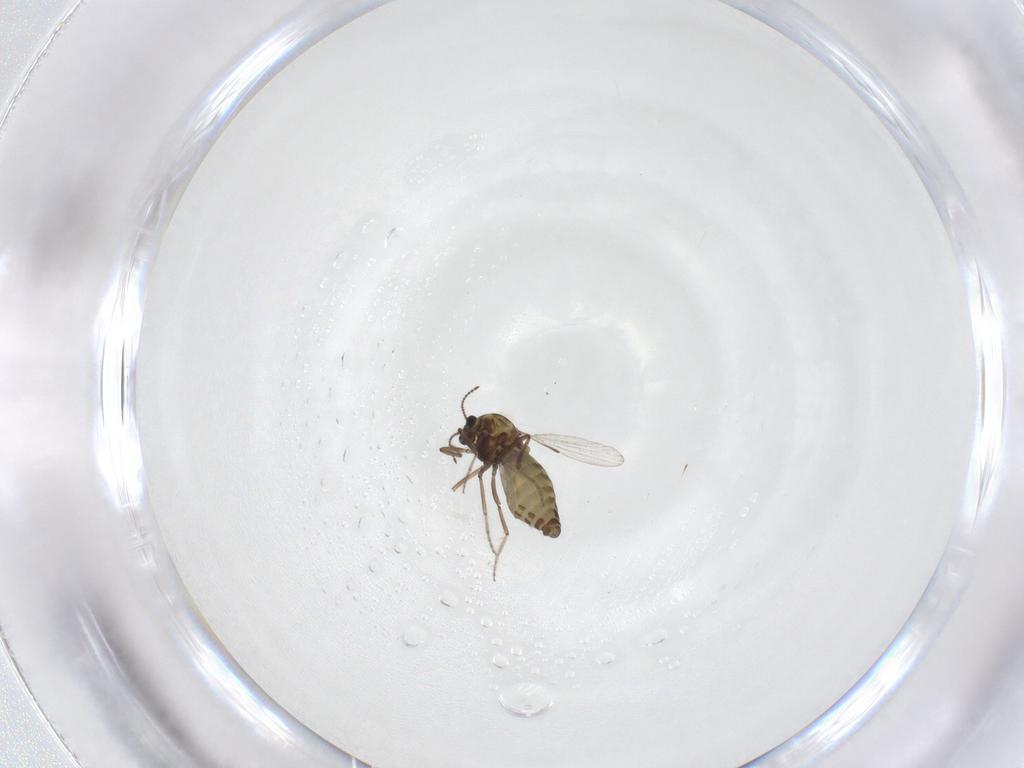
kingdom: Animalia
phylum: Arthropoda
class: Insecta
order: Diptera
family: Ceratopogonidae
